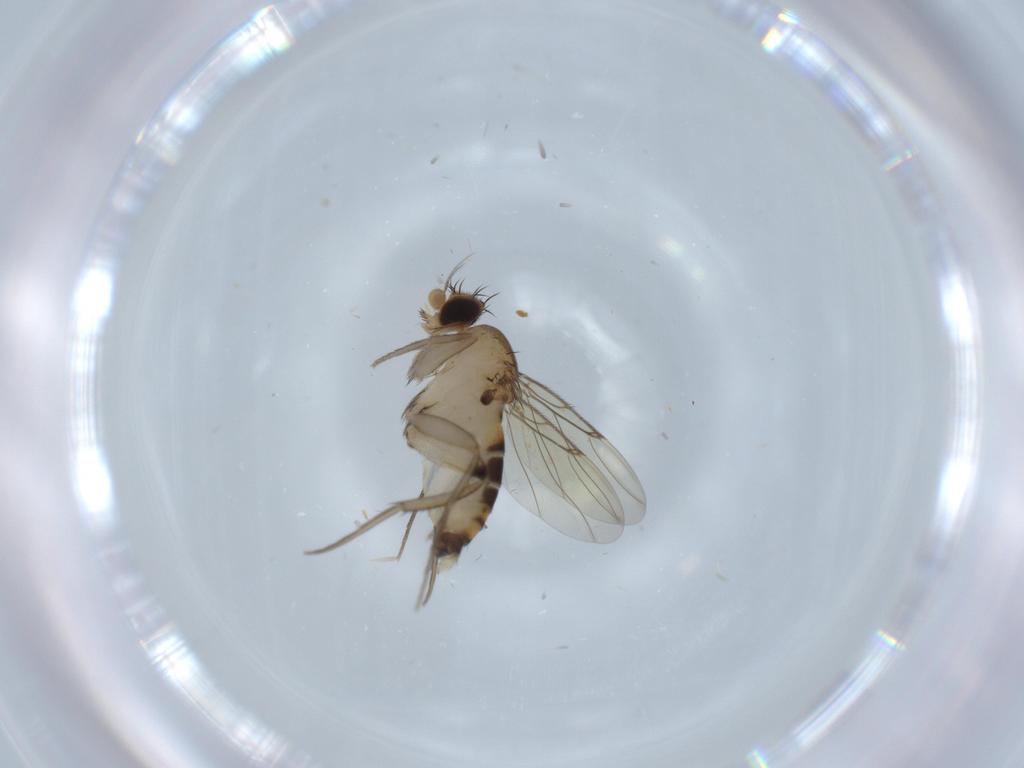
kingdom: Animalia
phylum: Arthropoda
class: Insecta
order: Diptera
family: Phoridae
